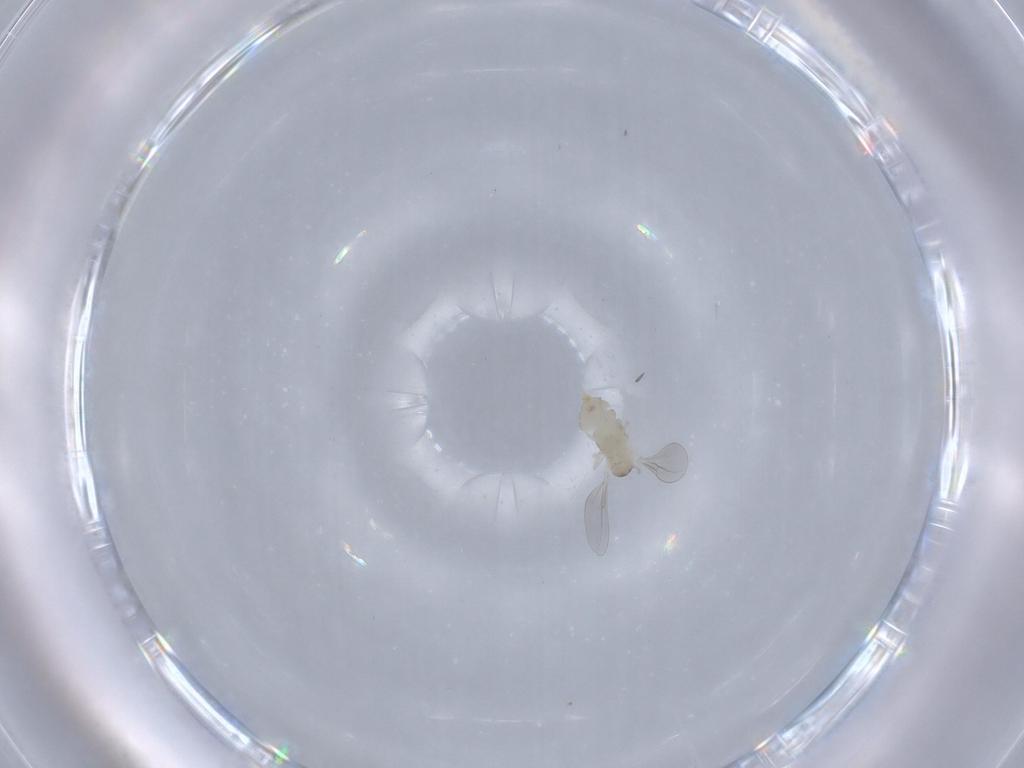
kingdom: Animalia
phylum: Arthropoda
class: Insecta
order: Diptera
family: Cecidomyiidae
